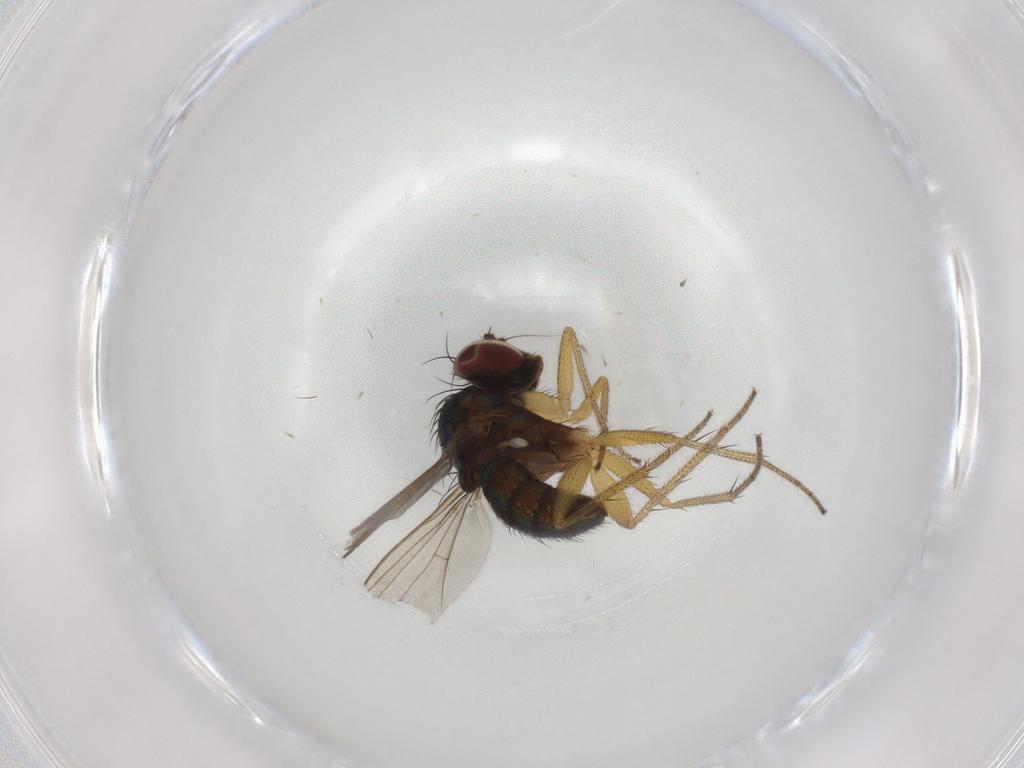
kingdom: Animalia
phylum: Arthropoda
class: Insecta
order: Diptera
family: Dolichopodidae
